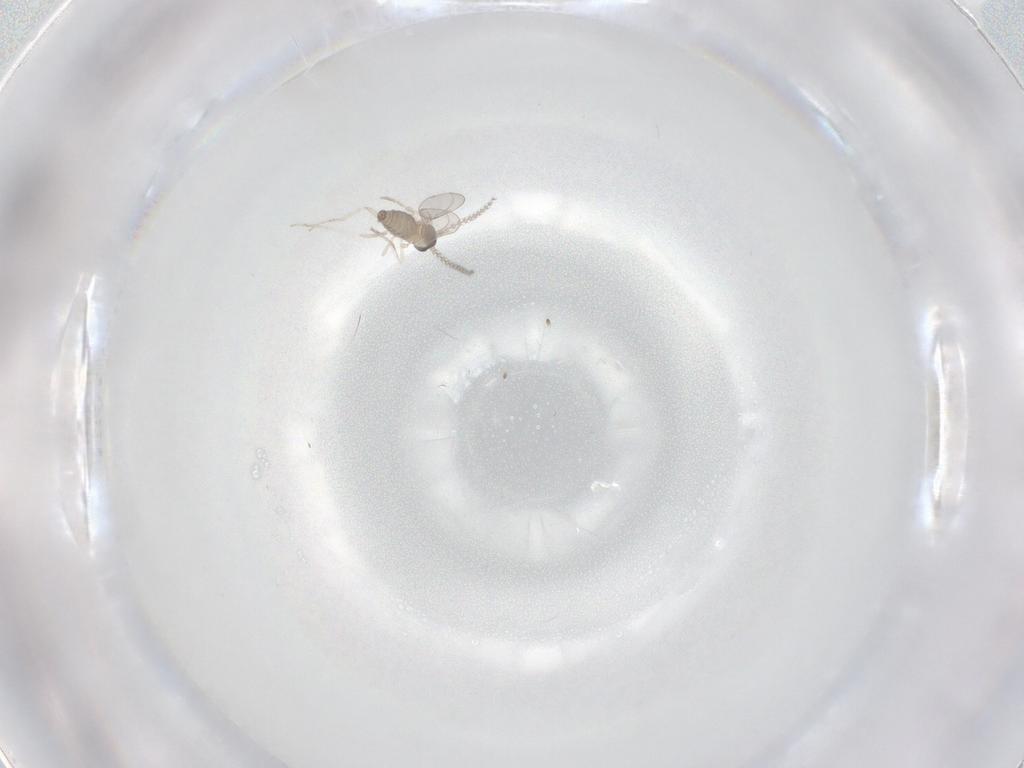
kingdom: Animalia
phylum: Arthropoda
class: Insecta
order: Diptera
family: Cecidomyiidae
